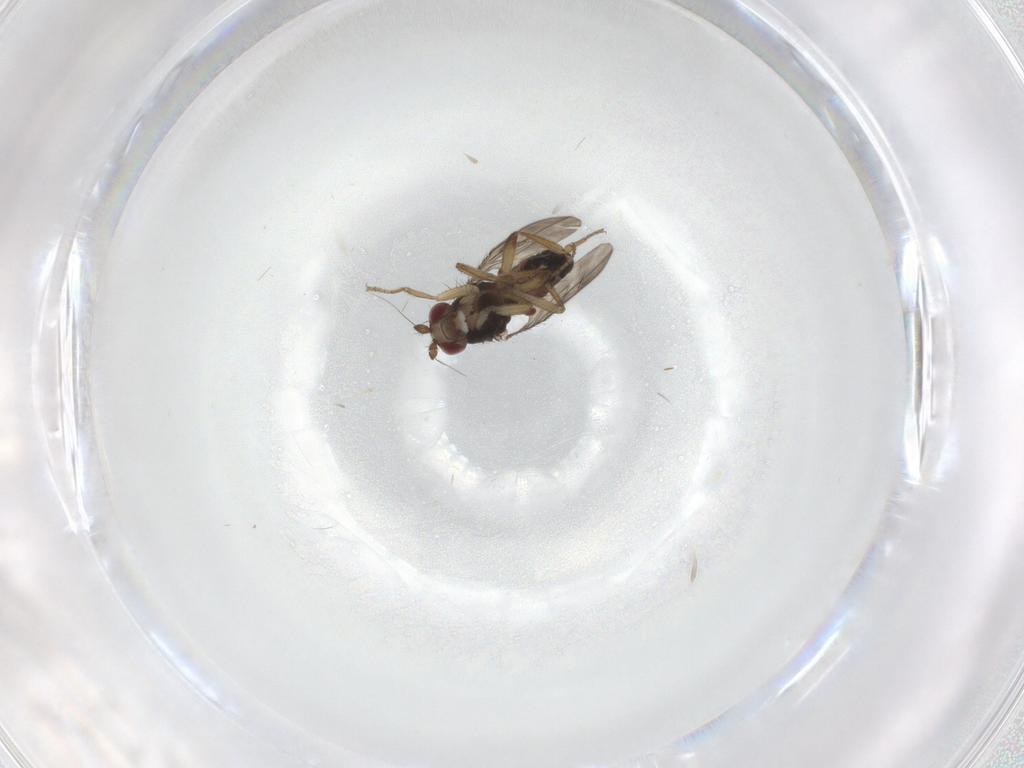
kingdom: Animalia
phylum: Arthropoda
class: Insecta
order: Diptera
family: Sphaeroceridae
